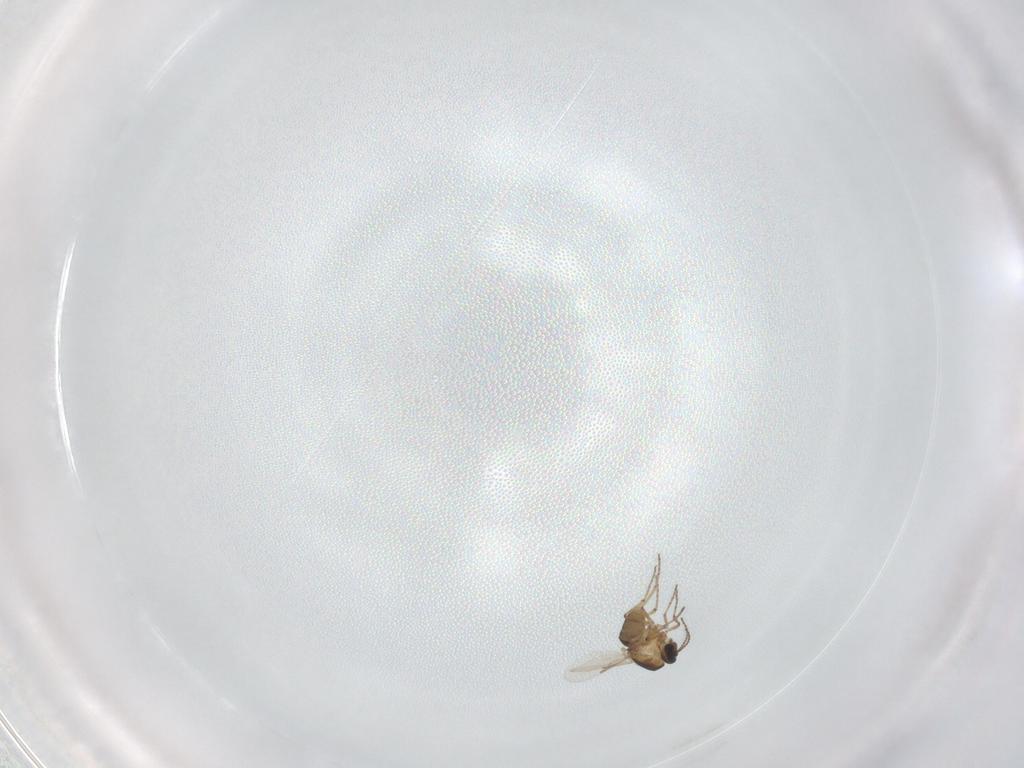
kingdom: Animalia
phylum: Arthropoda
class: Insecta
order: Diptera
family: Ceratopogonidae
